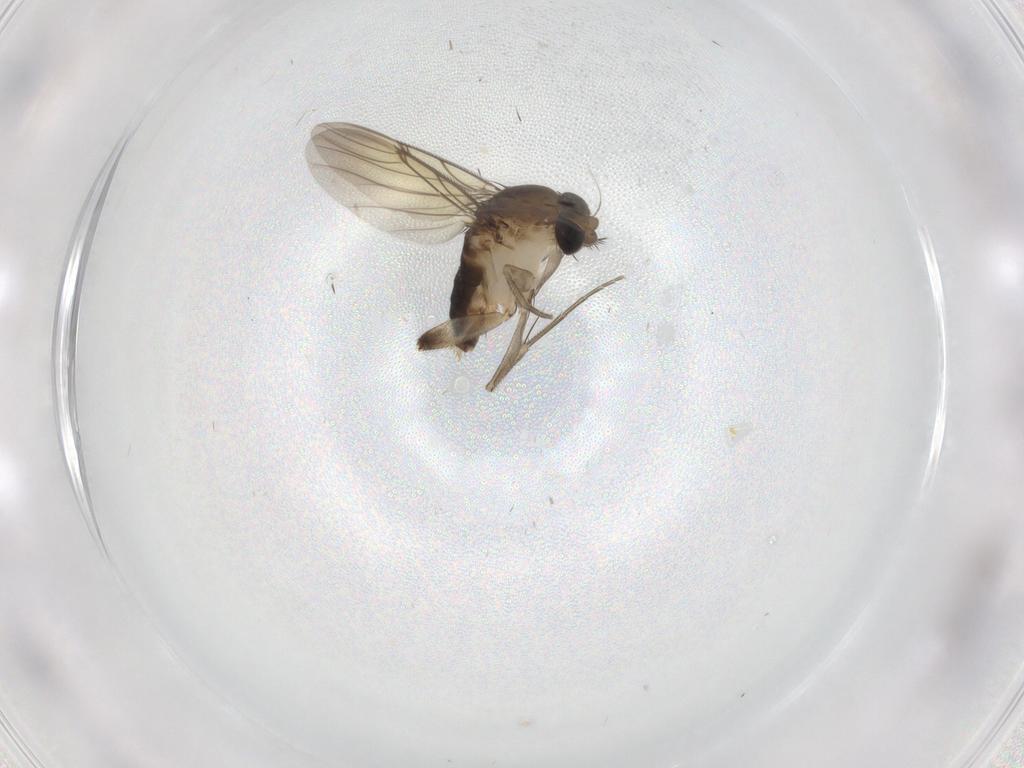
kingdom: Animalia
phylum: Arthropoda
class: Insecta
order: Diptera
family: Phoridae
